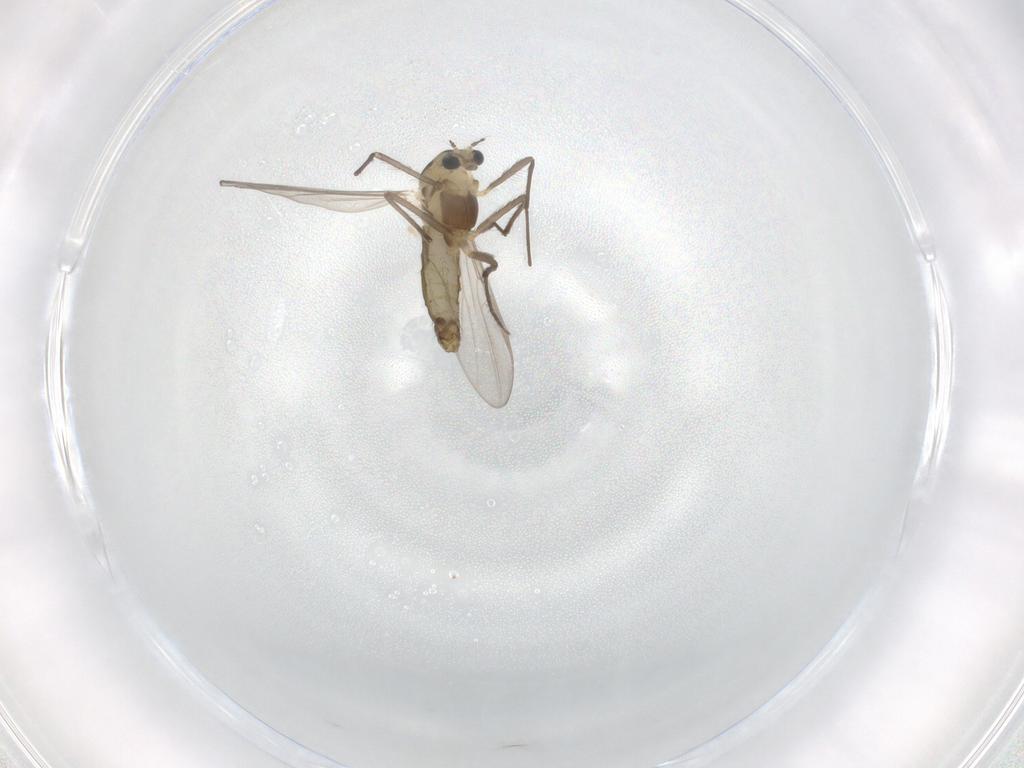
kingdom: Animalia
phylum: Arthropoda
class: Insecta
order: Diptera
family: Chironomidae
